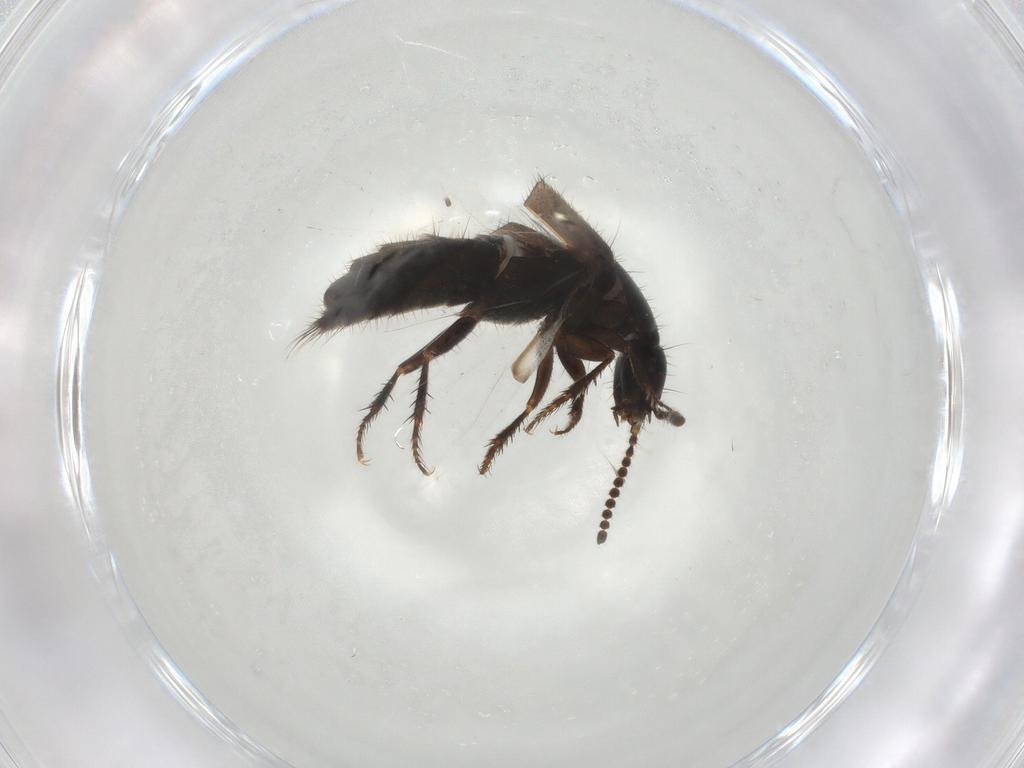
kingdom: Animalia
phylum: Arthropoda
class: Insecta
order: Coleoptera
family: Staphylinidae
